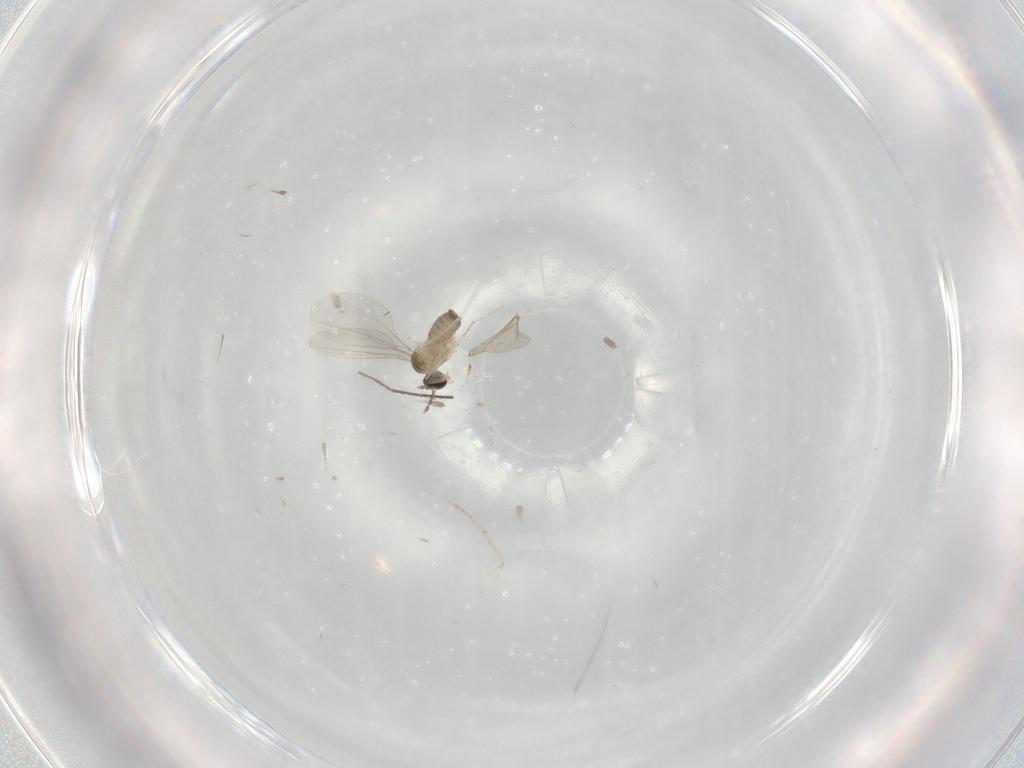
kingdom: Animalia
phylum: Arthropoda
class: Insecta
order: Diptera
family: Cecidomyiidae
